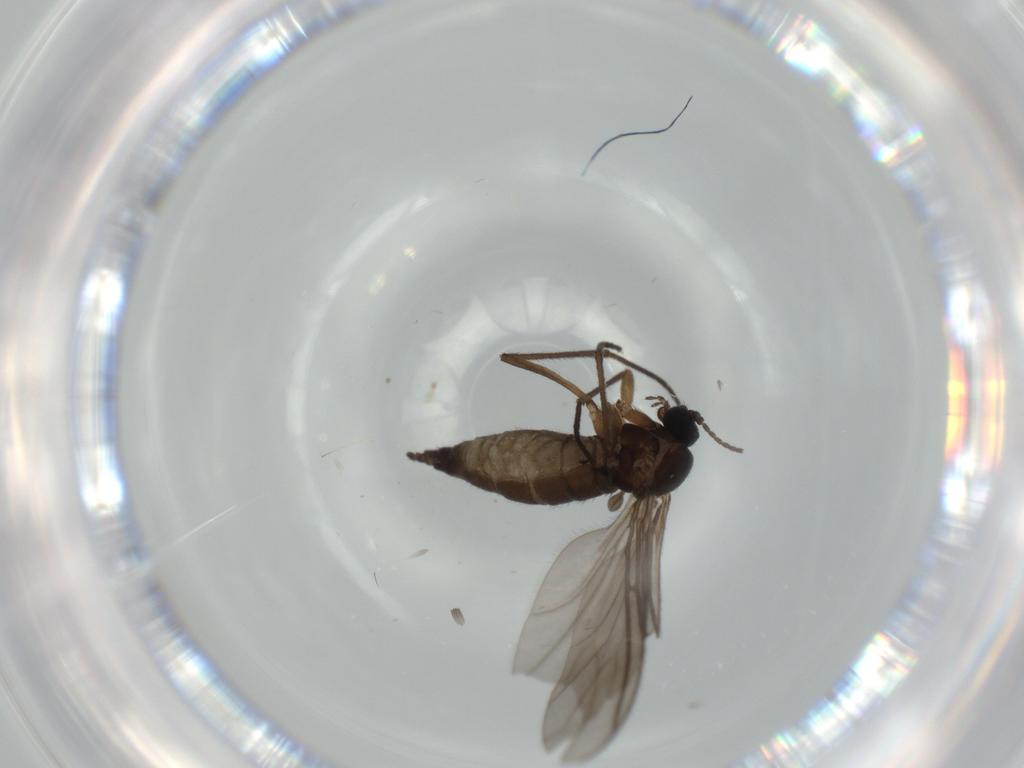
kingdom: Animalia
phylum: Arthropoda
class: Insecta
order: Diptera
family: Sciaridae
